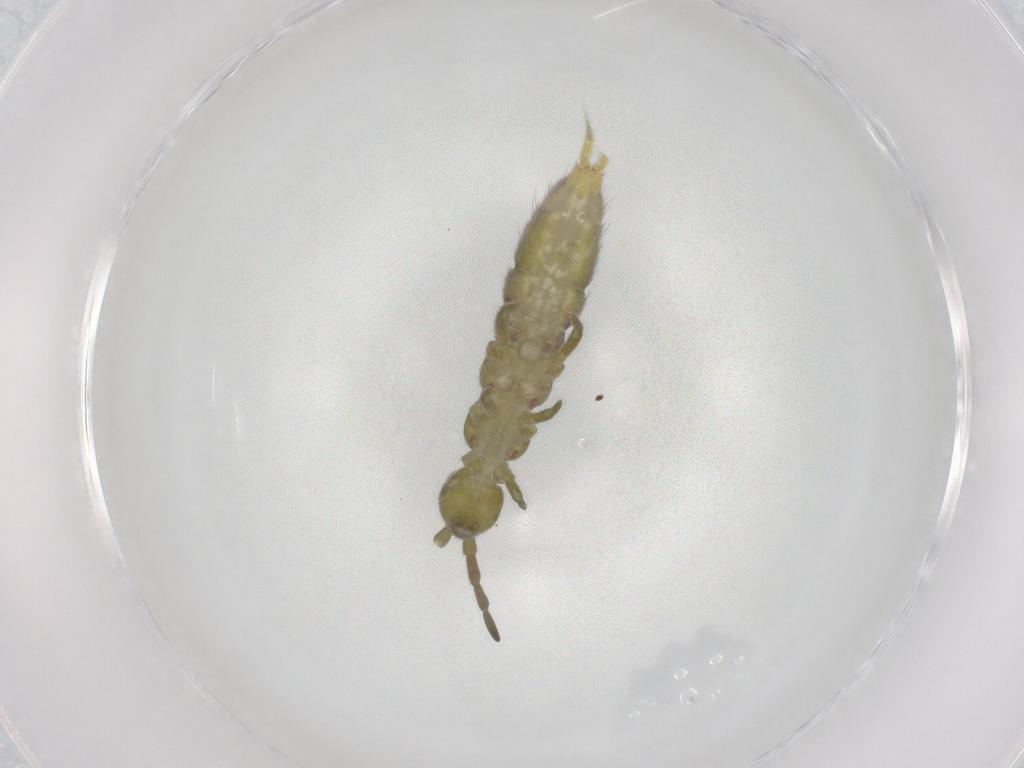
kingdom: Animalia
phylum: Arthropoda
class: Collembola
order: Entomobryomorpha
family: Isotomidae
